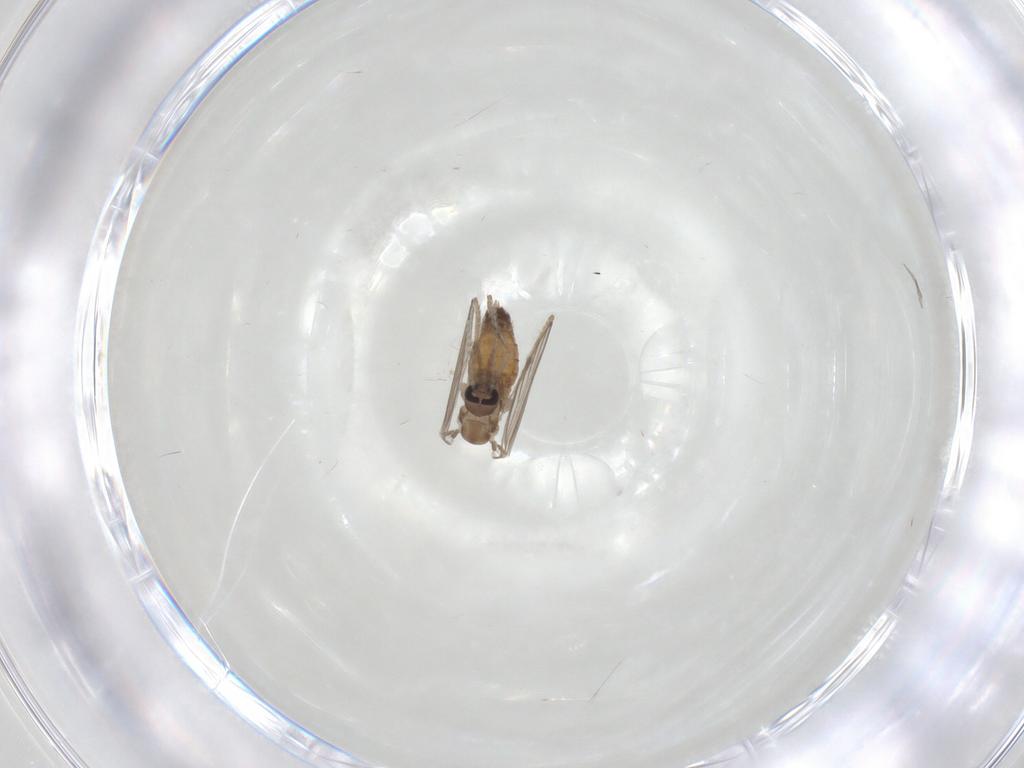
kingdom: Animalia
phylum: Arthropoda
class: Insecta
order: Diptera
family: Psychodidae
